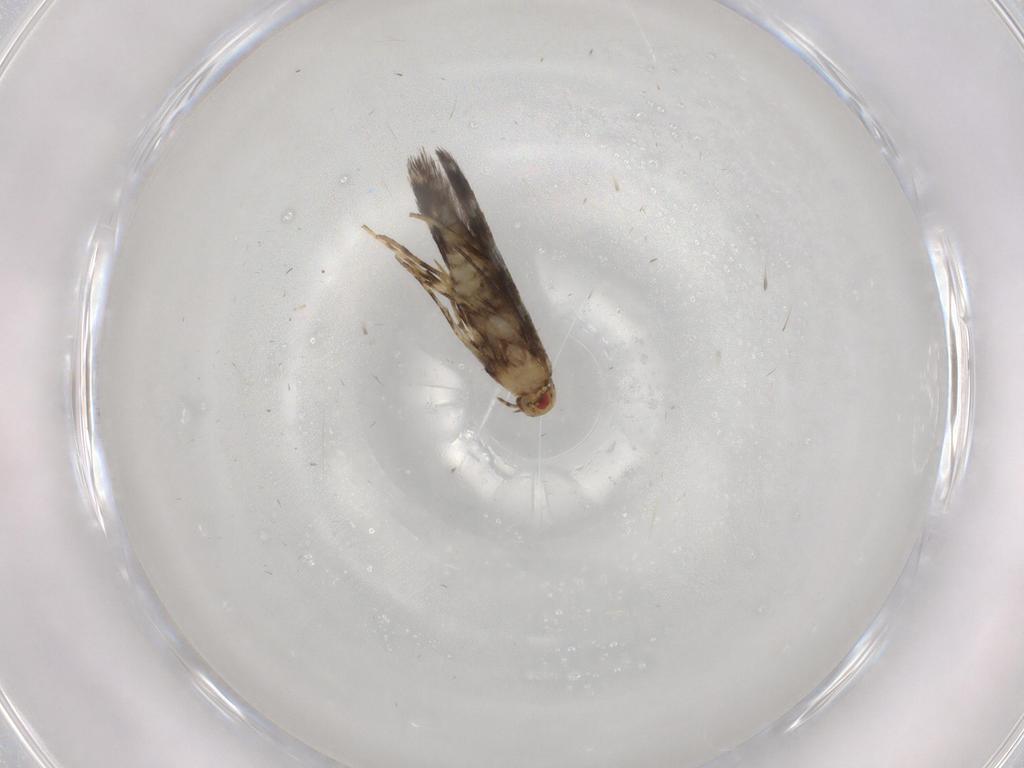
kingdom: Animalia
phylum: Arthropoda
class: Insecta
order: Lepidoptera
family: Gracillariidae
